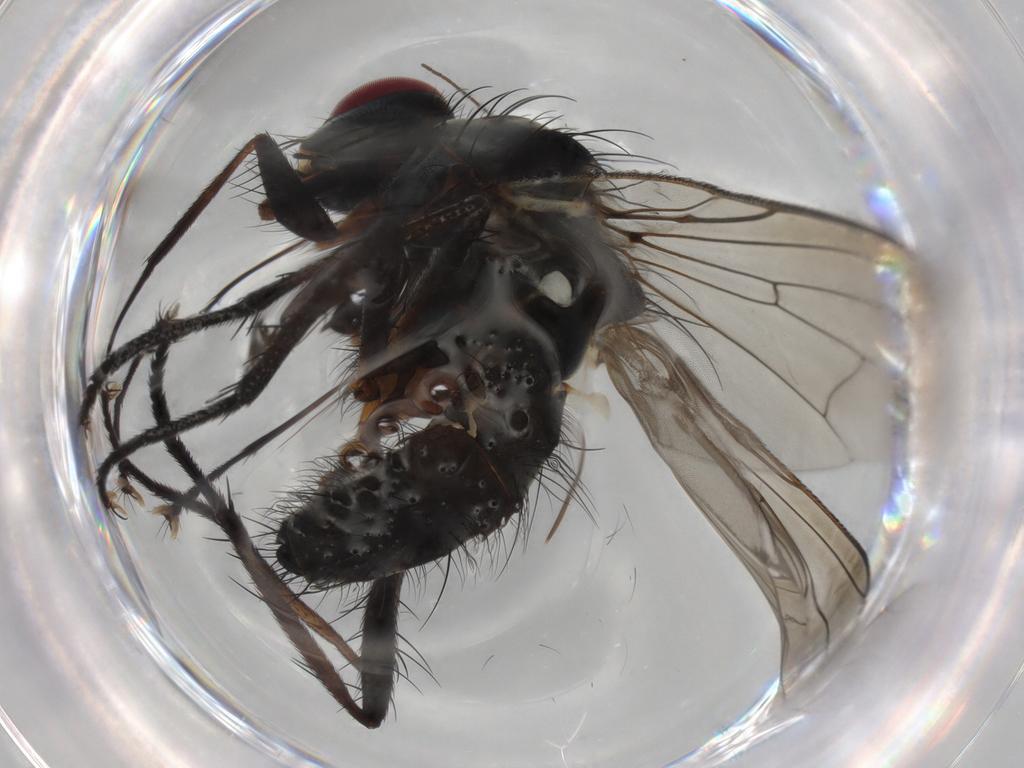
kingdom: Animalia
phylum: Arthropoda
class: Insecta
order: Diptera
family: Anthomyiidae
